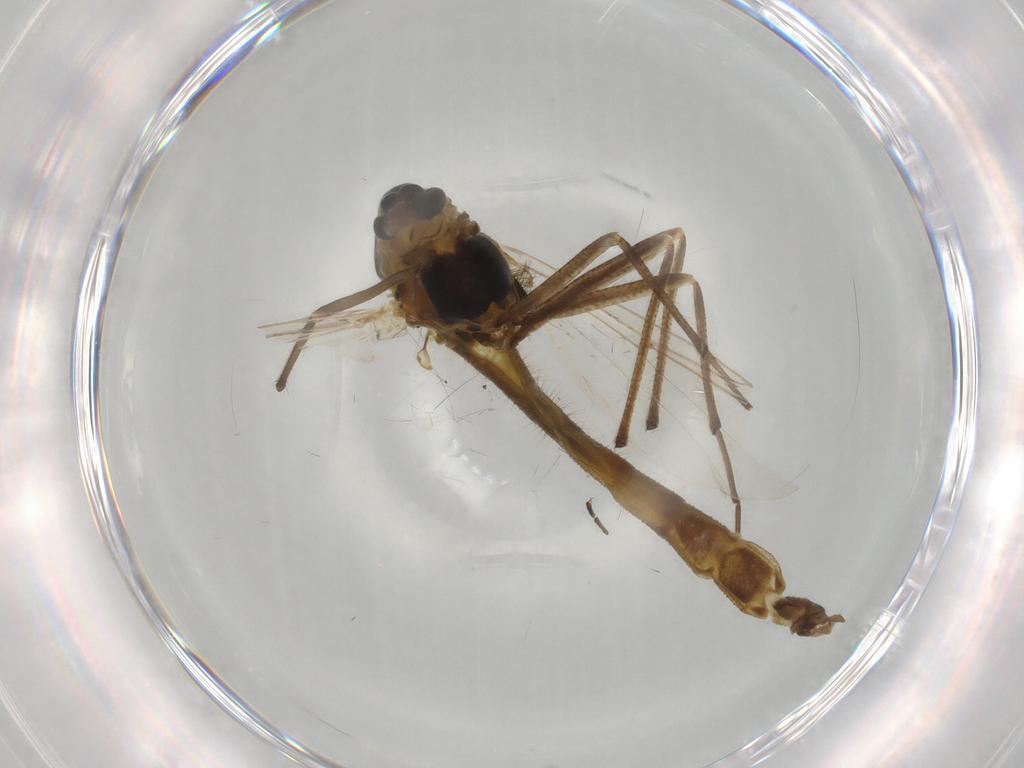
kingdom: Animalia
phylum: Arthropoda
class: Insecta
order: Diptera
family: Chironomidae
